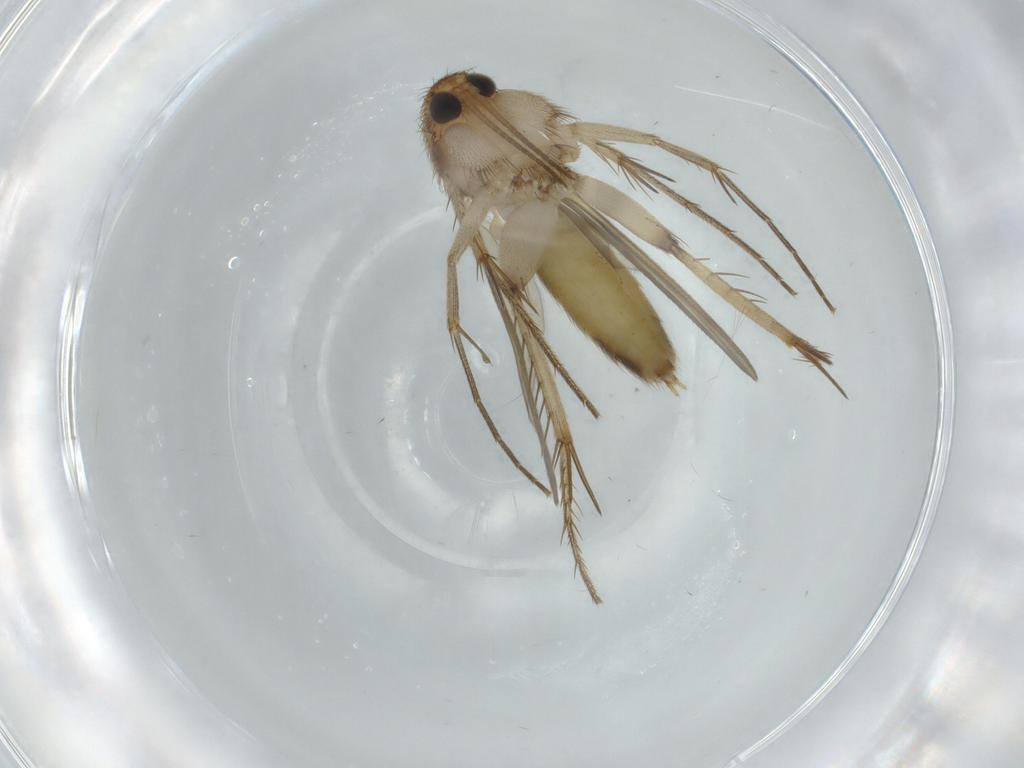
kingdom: Animalia
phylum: Arthropoda
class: Insecta
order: Diptera
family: Mycetophilidae
